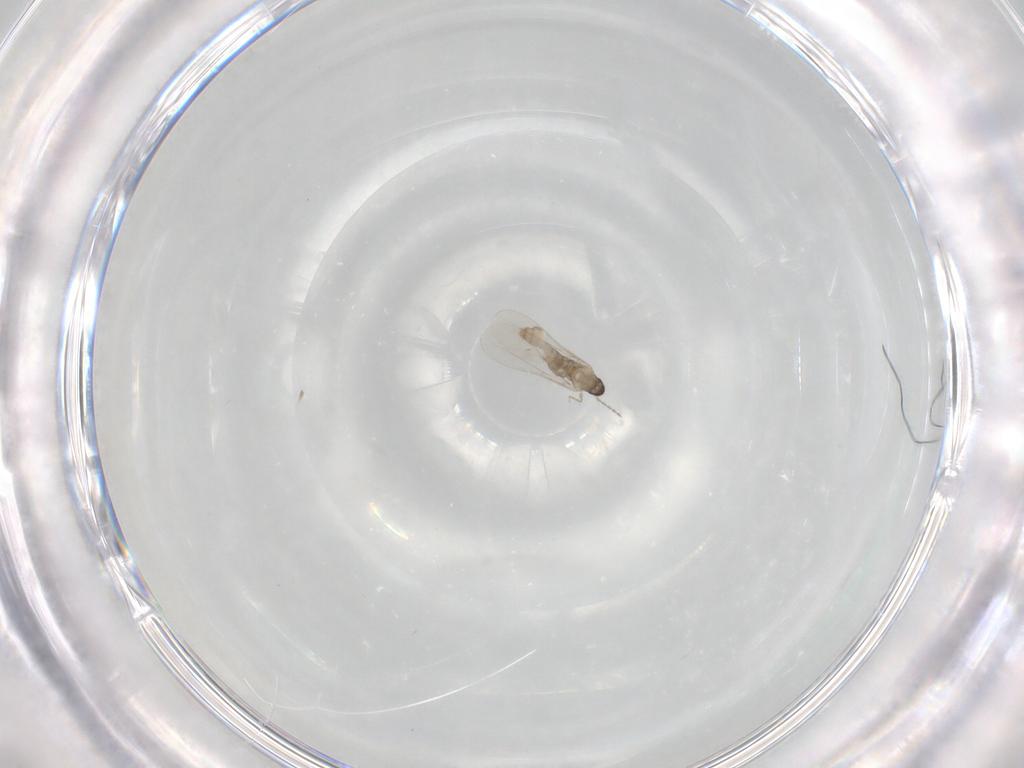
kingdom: Animalia
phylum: Arthropoda
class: Insecta
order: Diptera
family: Cecidomyiidae
